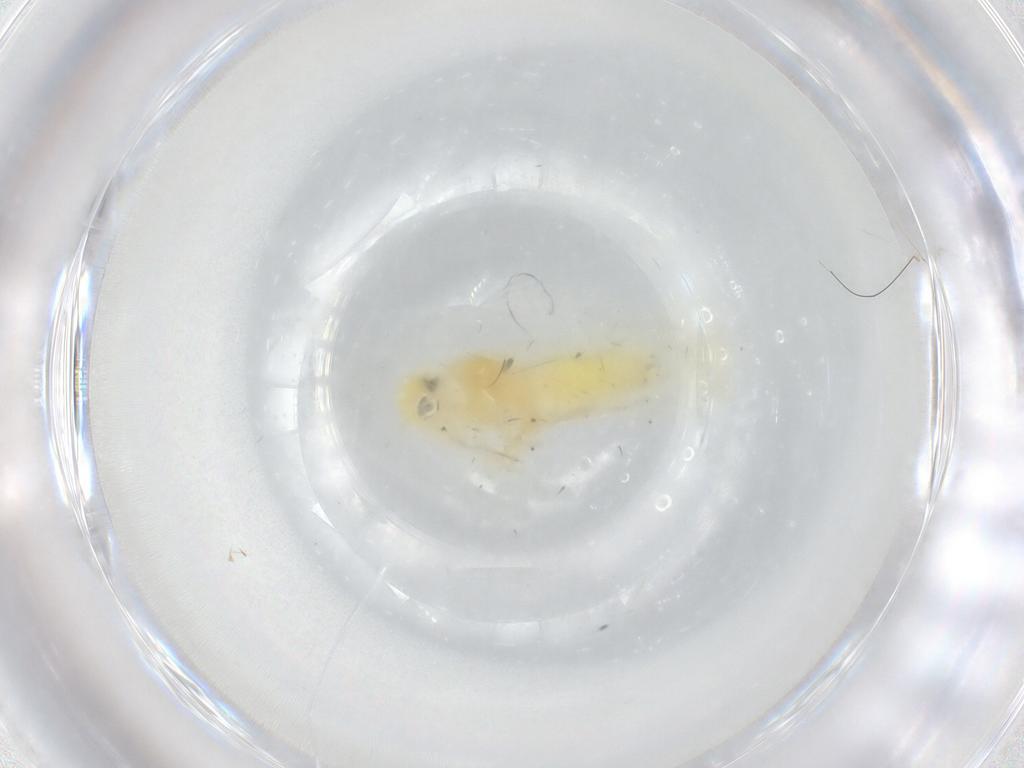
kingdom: Animalia
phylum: Arthropoda
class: Insecta
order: Hemiptera
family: Cicadellidae
